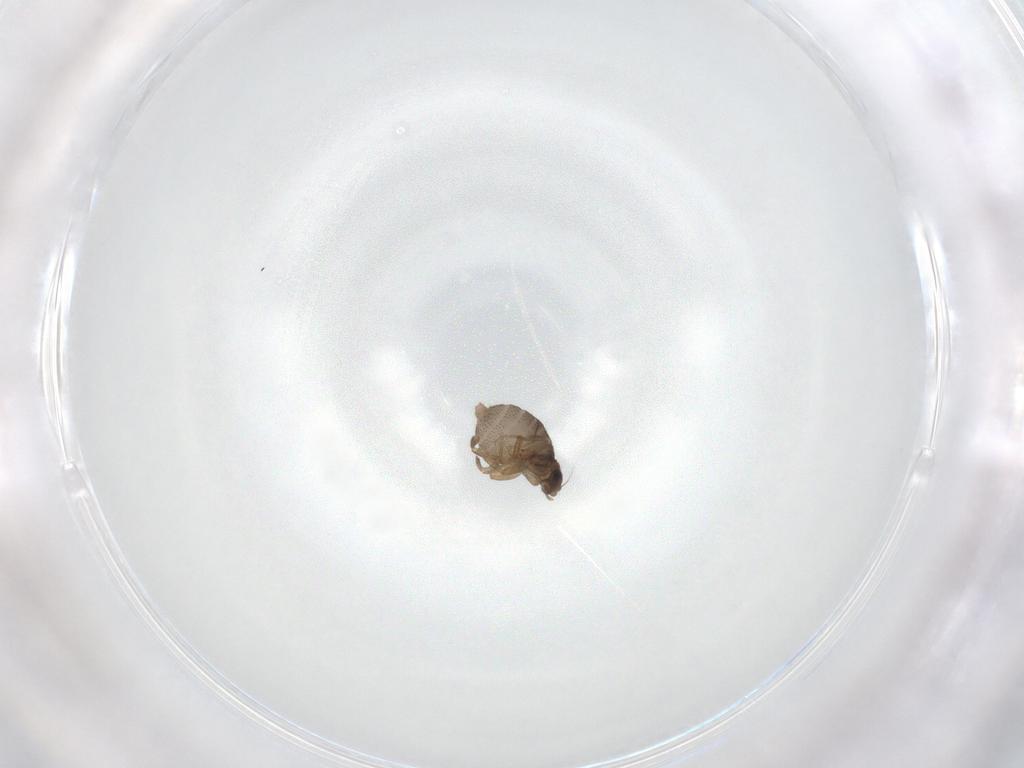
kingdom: Animalia
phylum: Arthropoda
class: Insecta
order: Diptera
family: Phoridae
